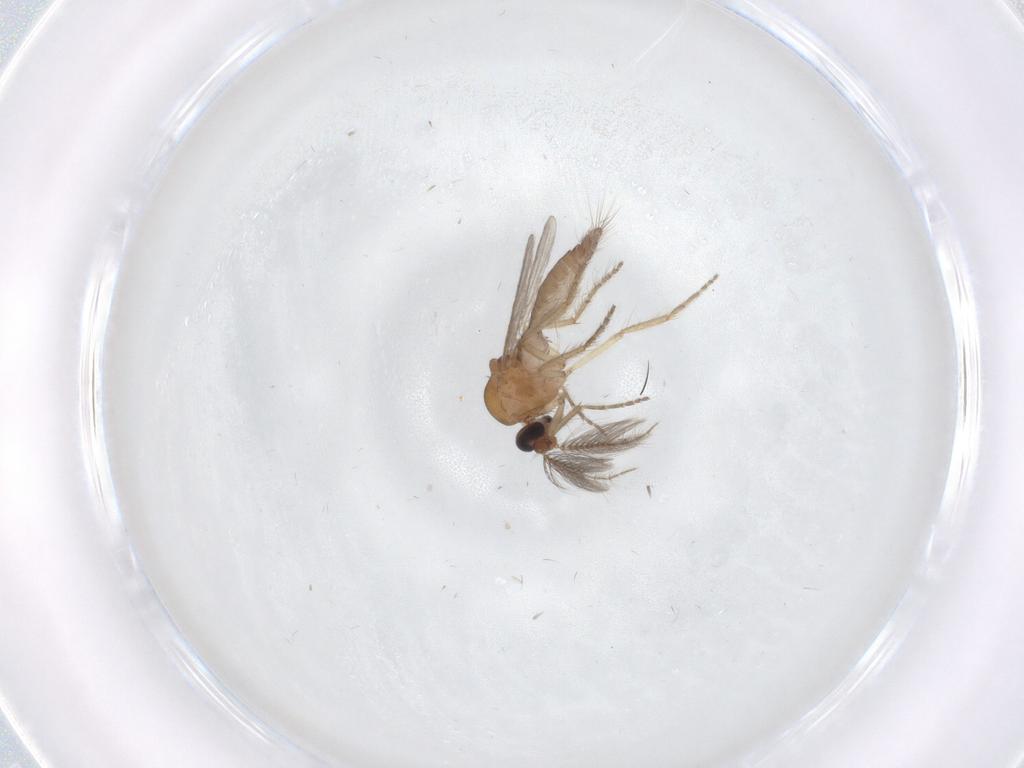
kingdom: Animalia
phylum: Arthropoda
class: Insecta
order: Diptera
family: Ceratopogonidae
